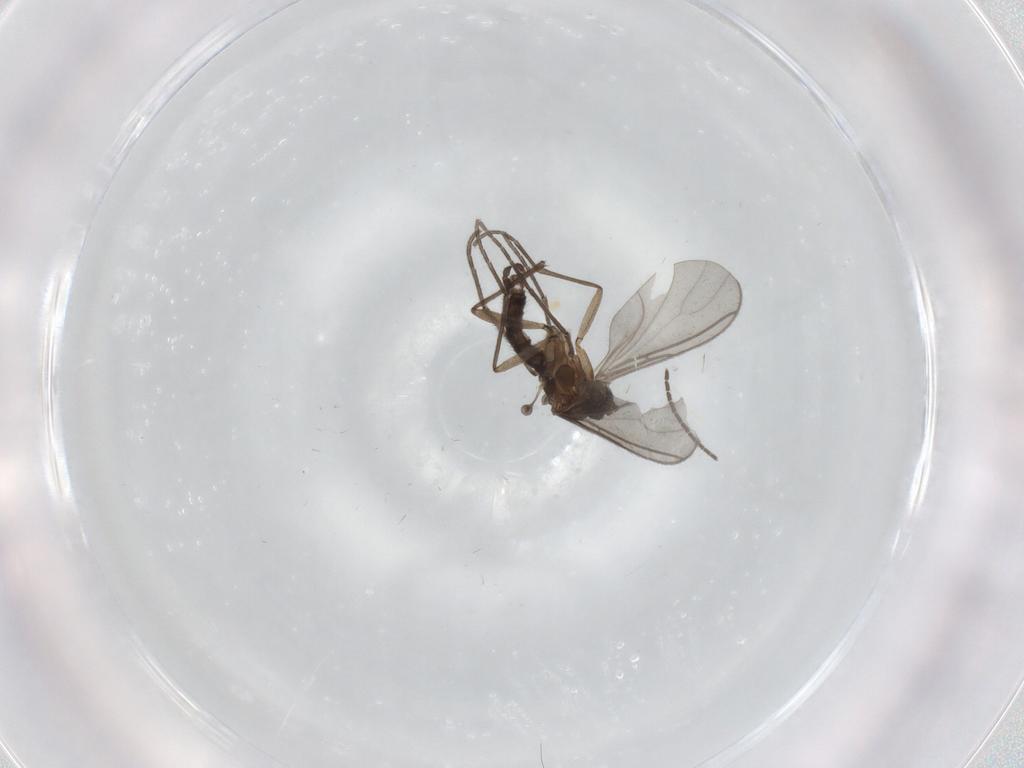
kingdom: Animalia
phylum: Arthropoda
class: Insecta
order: Diptera
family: Sciaridae
